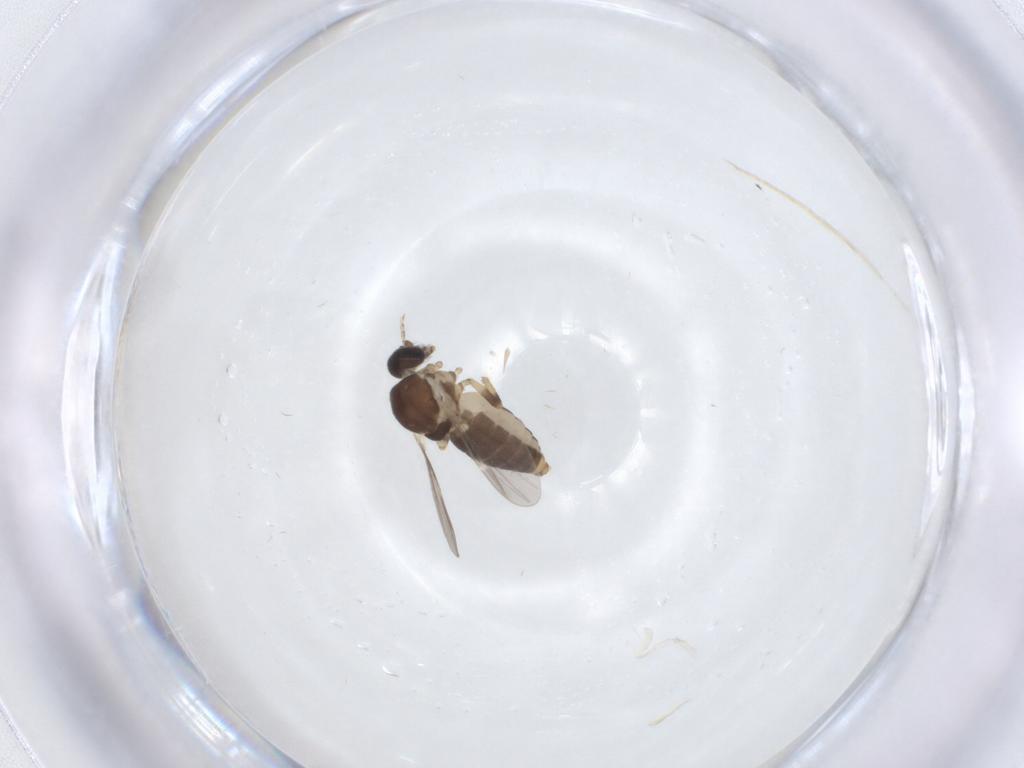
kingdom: Animalia
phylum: Arthropoda
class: Insecta
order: Diptera
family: Ceratopogonidae
